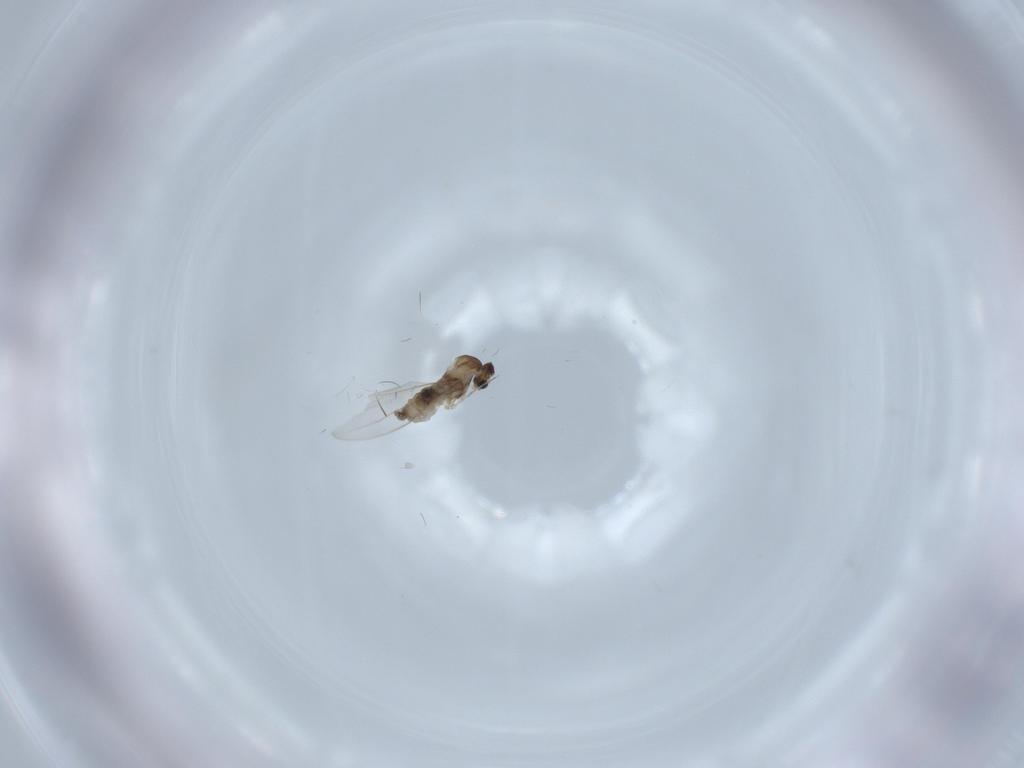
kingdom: Animalia
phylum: Arthropoda
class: Insecta
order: Diptera
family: Cecidomyiidae
